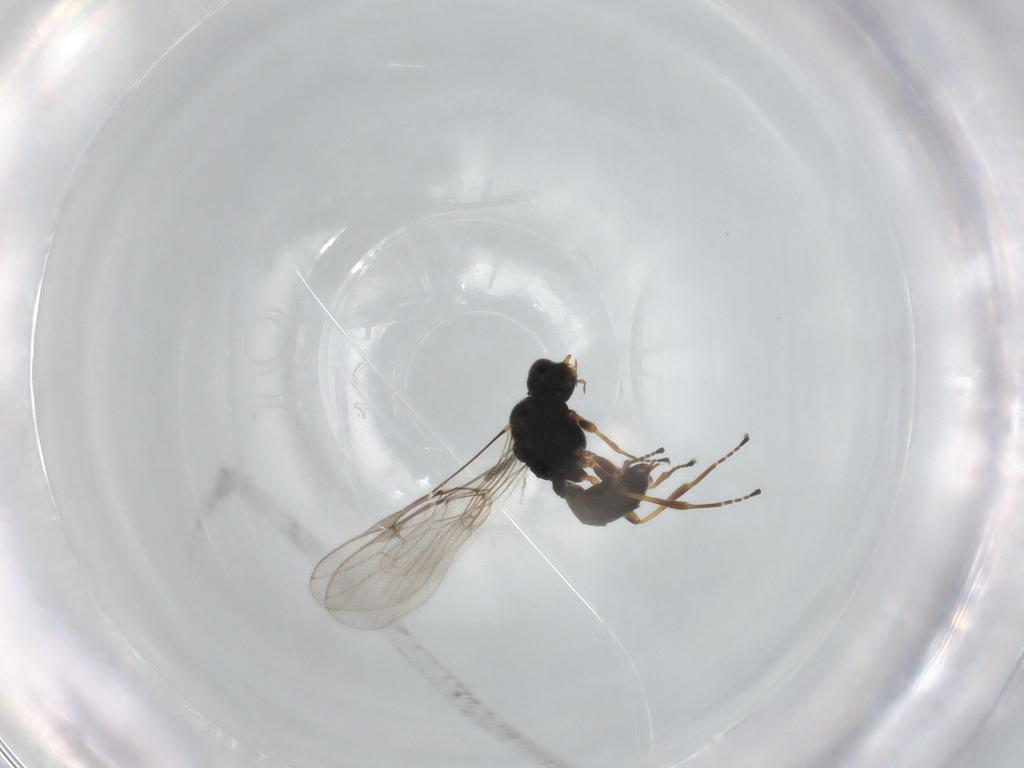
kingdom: Animalia
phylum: Arthropoda
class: Insecta
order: Hymenoptera
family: Braconidae
